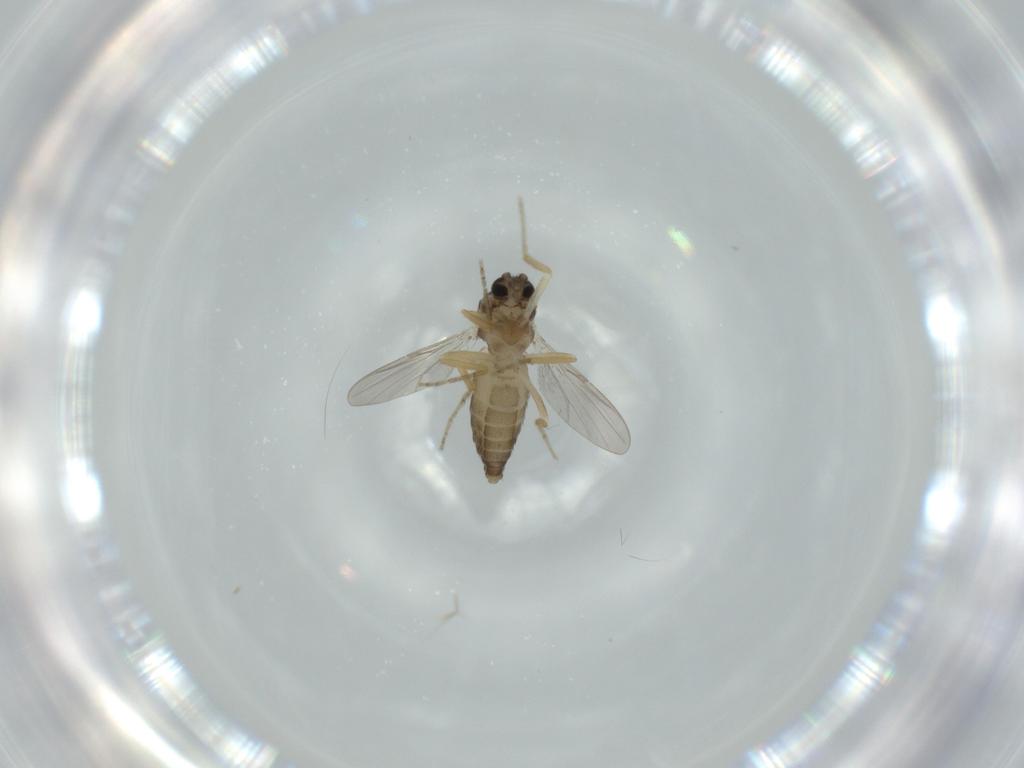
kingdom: Animalia
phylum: Arthropoda
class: Insecta
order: Diptera
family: Ceratopogonidae
